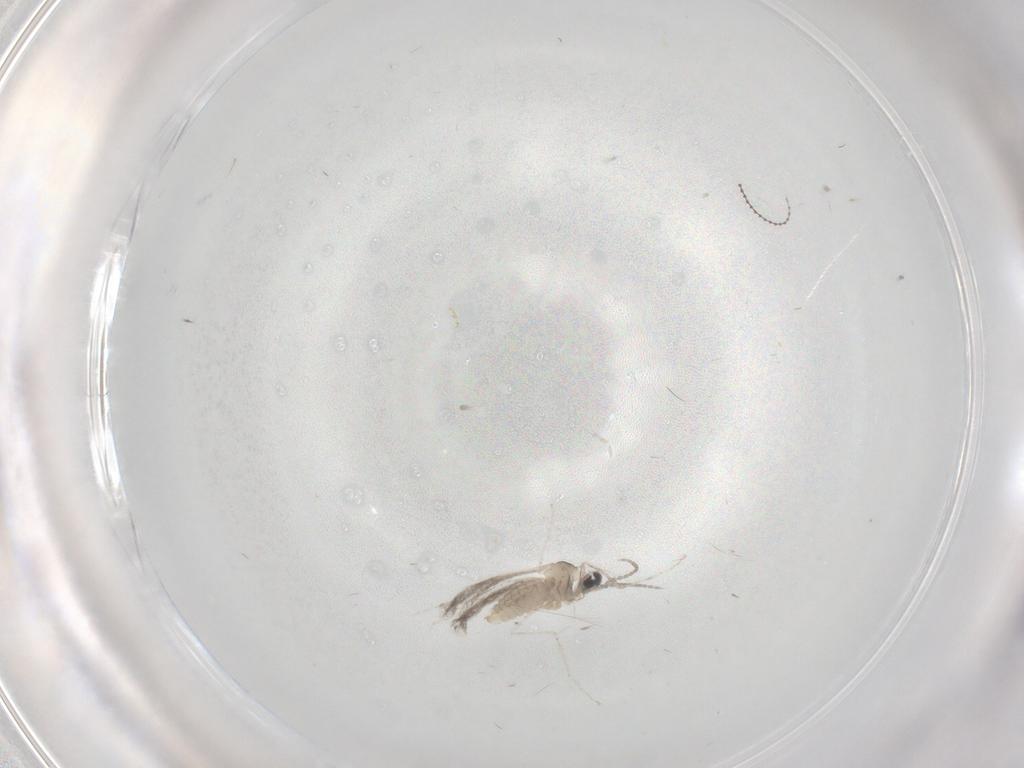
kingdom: Animalia
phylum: Arthropoda
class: Insecta
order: Diptera
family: Cecidomyiidae
